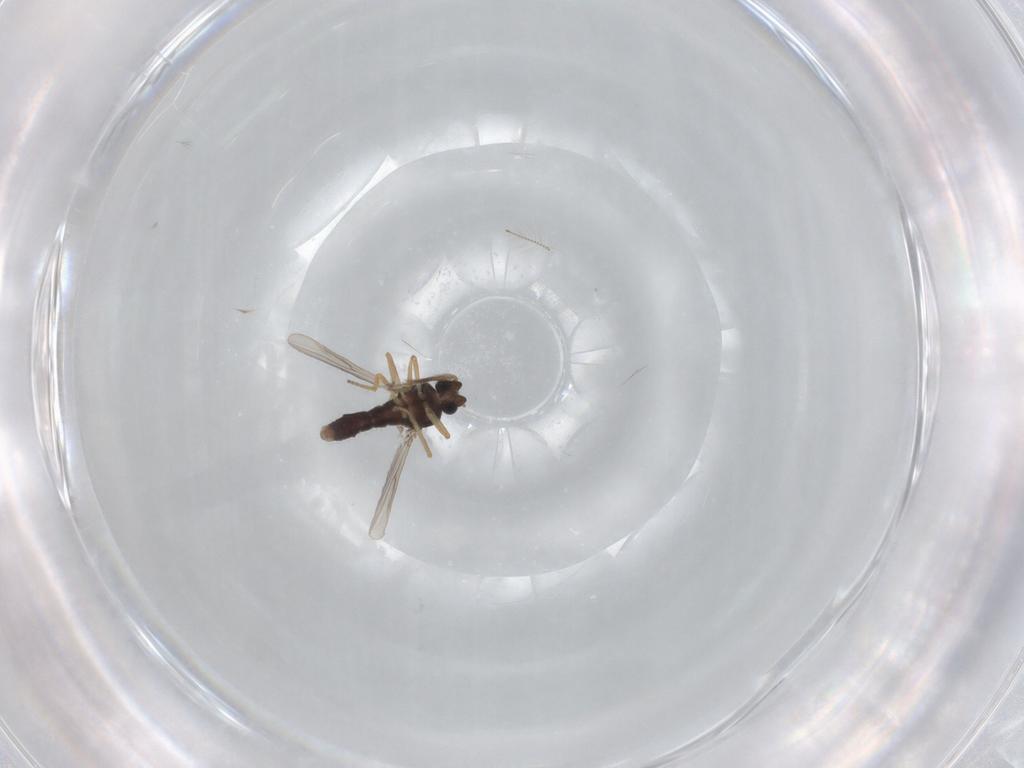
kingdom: Animalia
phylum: Arthropoda
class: Insecta
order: Diptera
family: Ceratopogonidae
